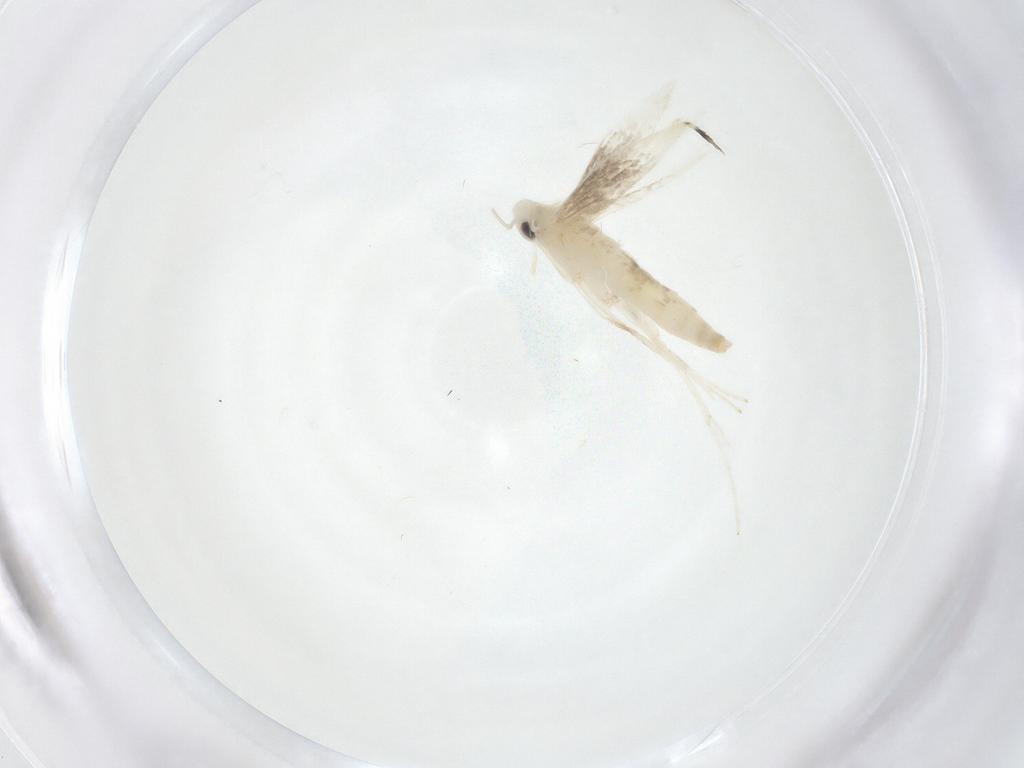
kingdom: Animalia
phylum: Arthropoda
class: Insecta
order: Lepidoptera
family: Gracillariidae
